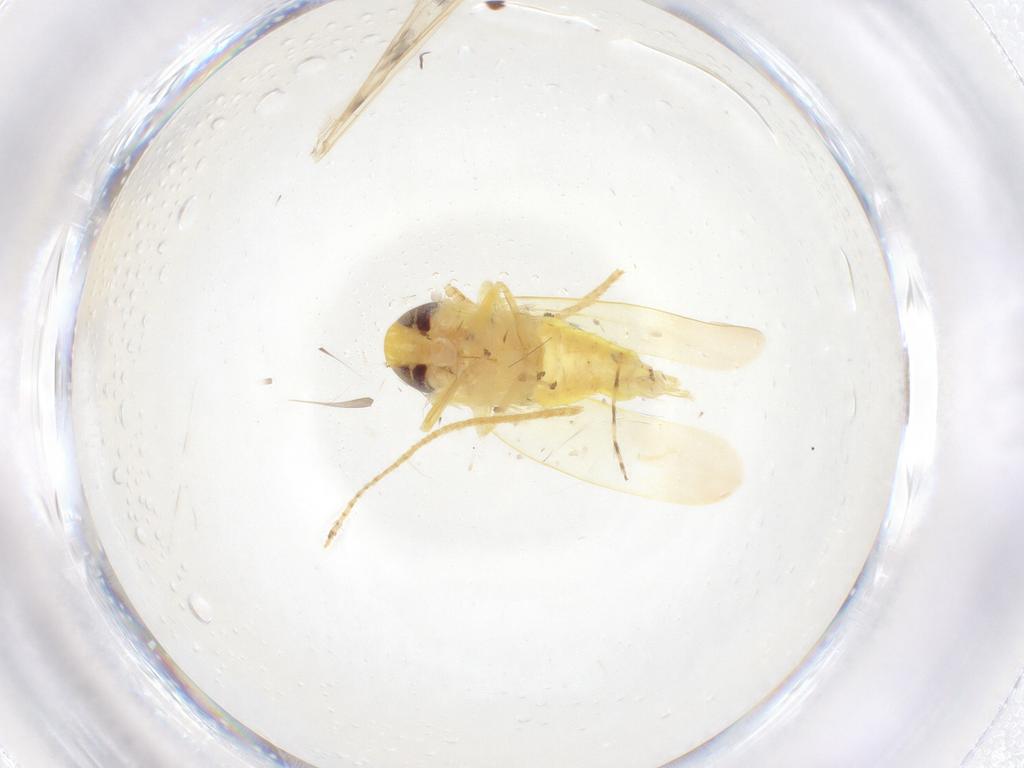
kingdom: Animalia
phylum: Arthropoda
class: Insecta
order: Hemiptera
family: Cicadellidae
